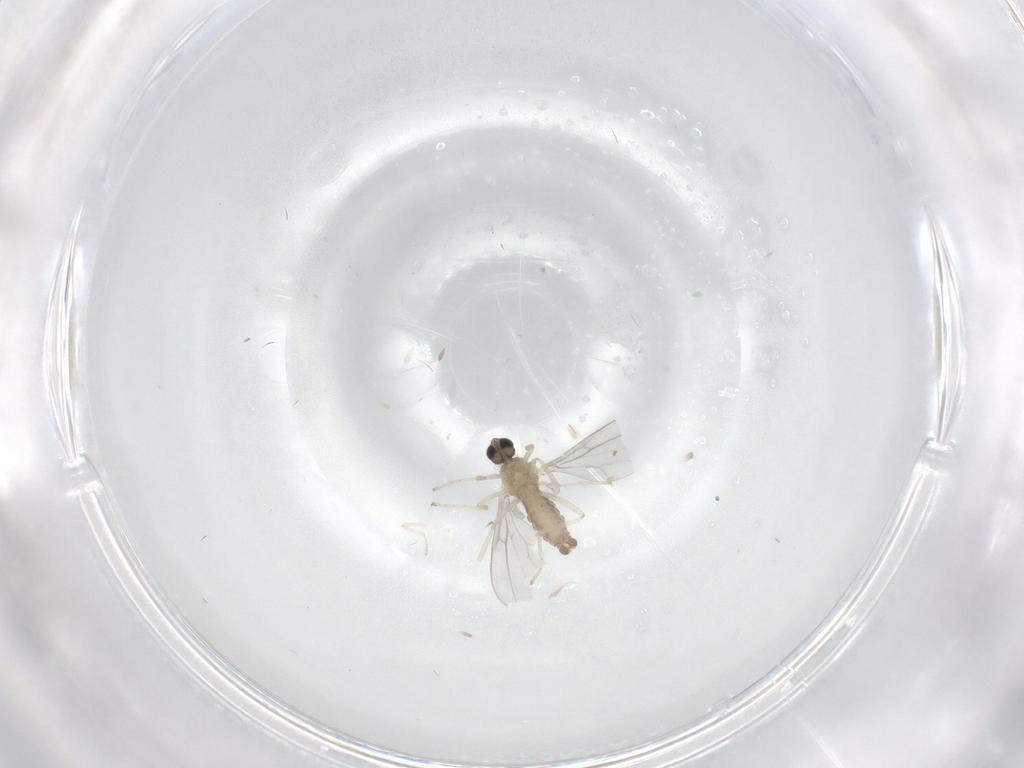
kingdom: Animalia
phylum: Arthropoda
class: Insecta
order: Diptera
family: Cecidomyiidae
